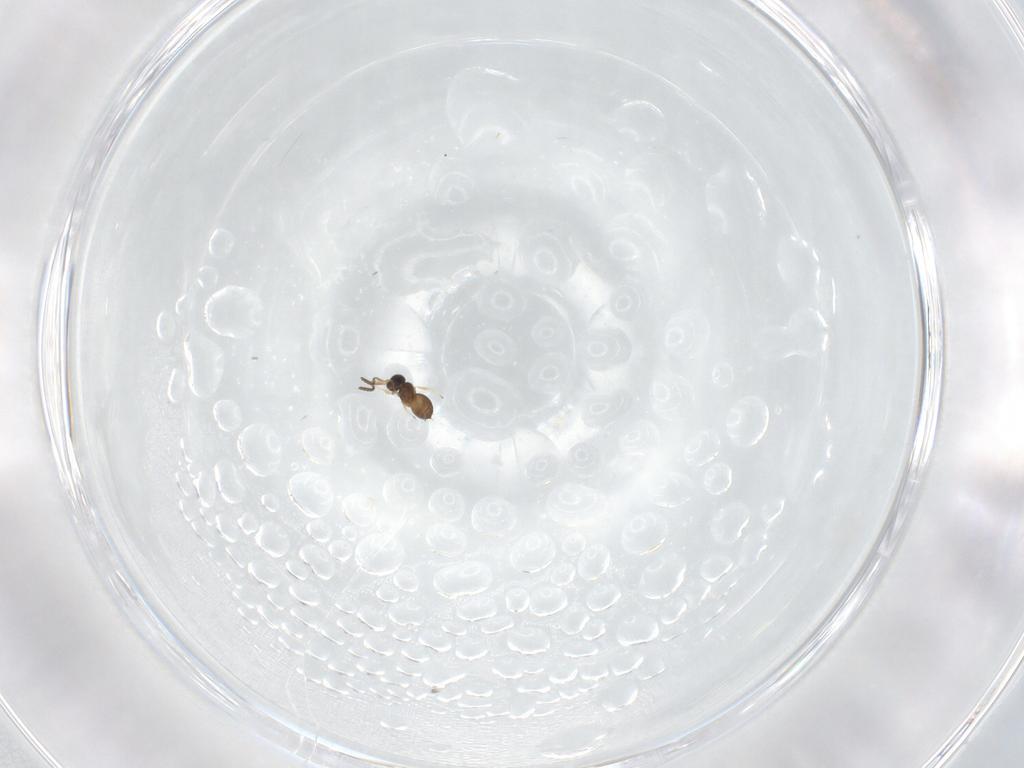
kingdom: Animalia
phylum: Arthropoda
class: Insecta
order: Hymenoptera
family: Scelionidae
